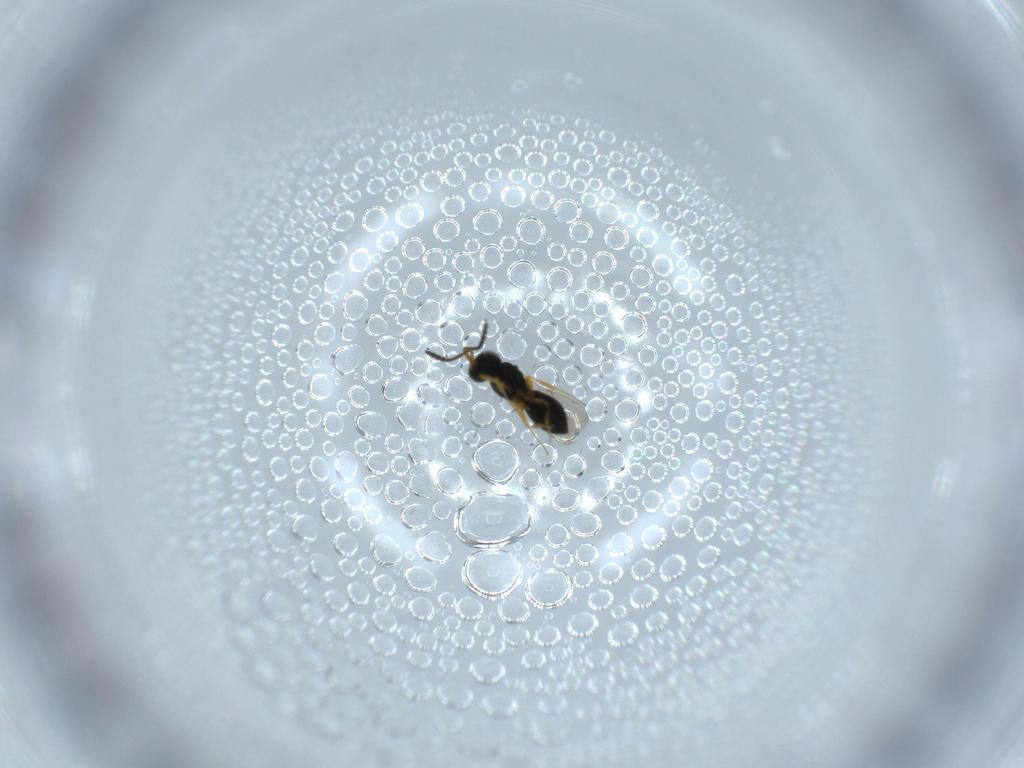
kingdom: Animalia
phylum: Arthropoda
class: Insecta
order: Hymenoptera
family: Scelionidae
